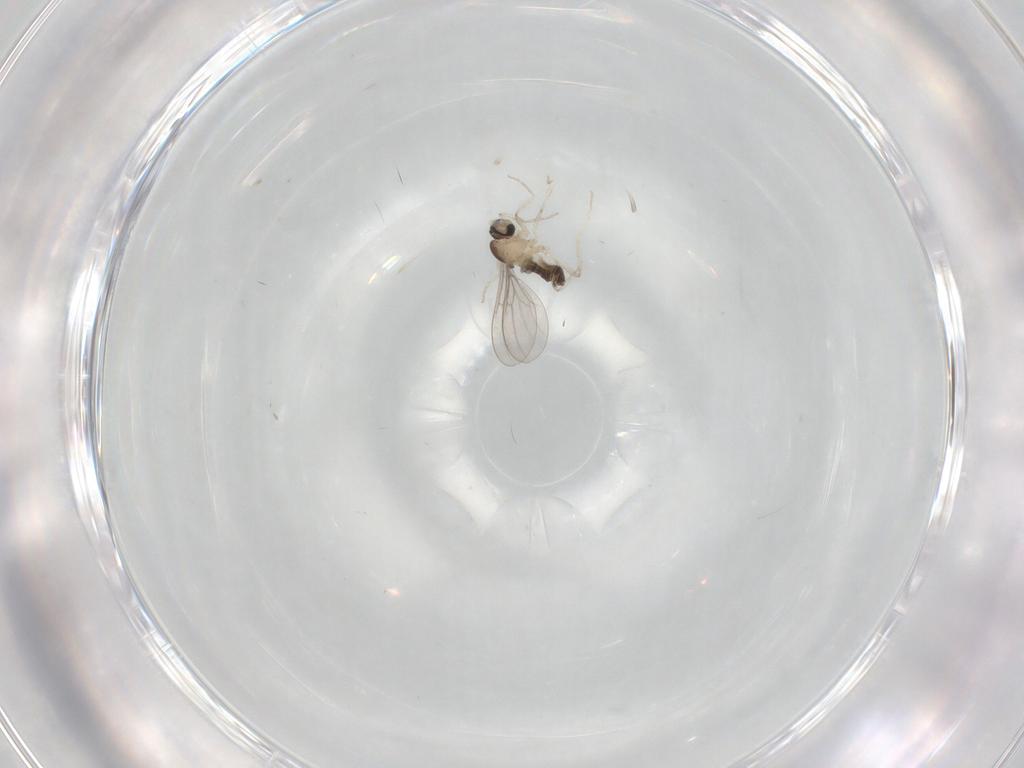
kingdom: Animalia
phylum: Arthropoda
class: Insecta
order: Diptera
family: Cecidomyiidae
